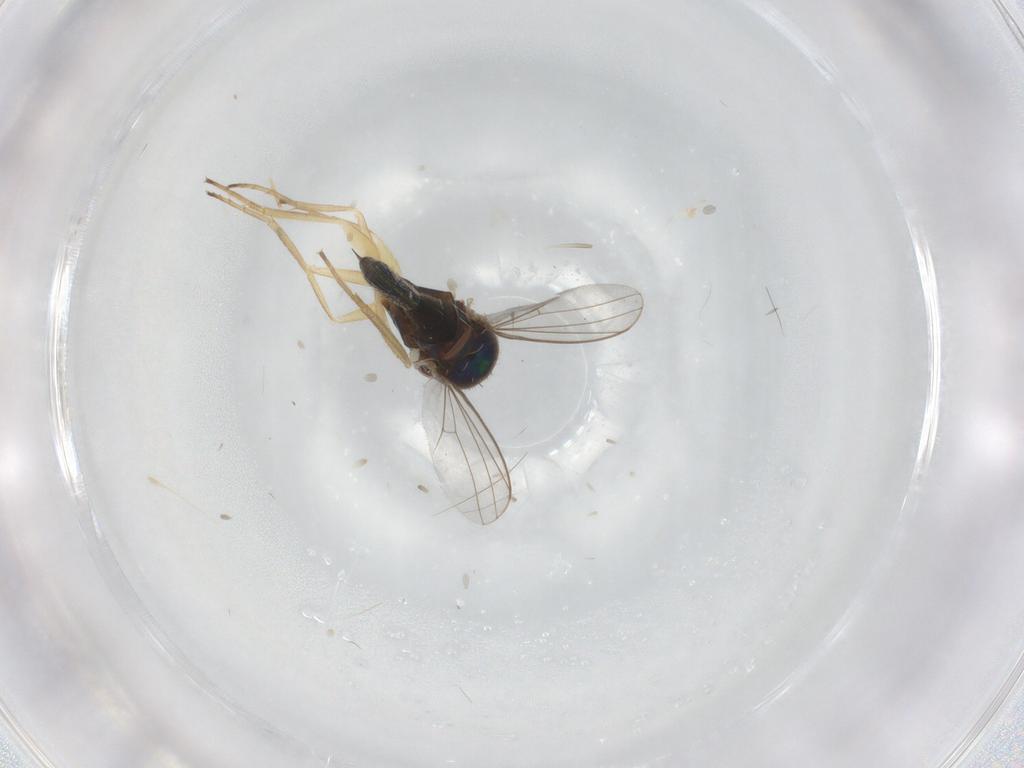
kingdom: Animalia
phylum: Arthropoda
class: Insecta
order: Diptera
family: Dolichopodidae
